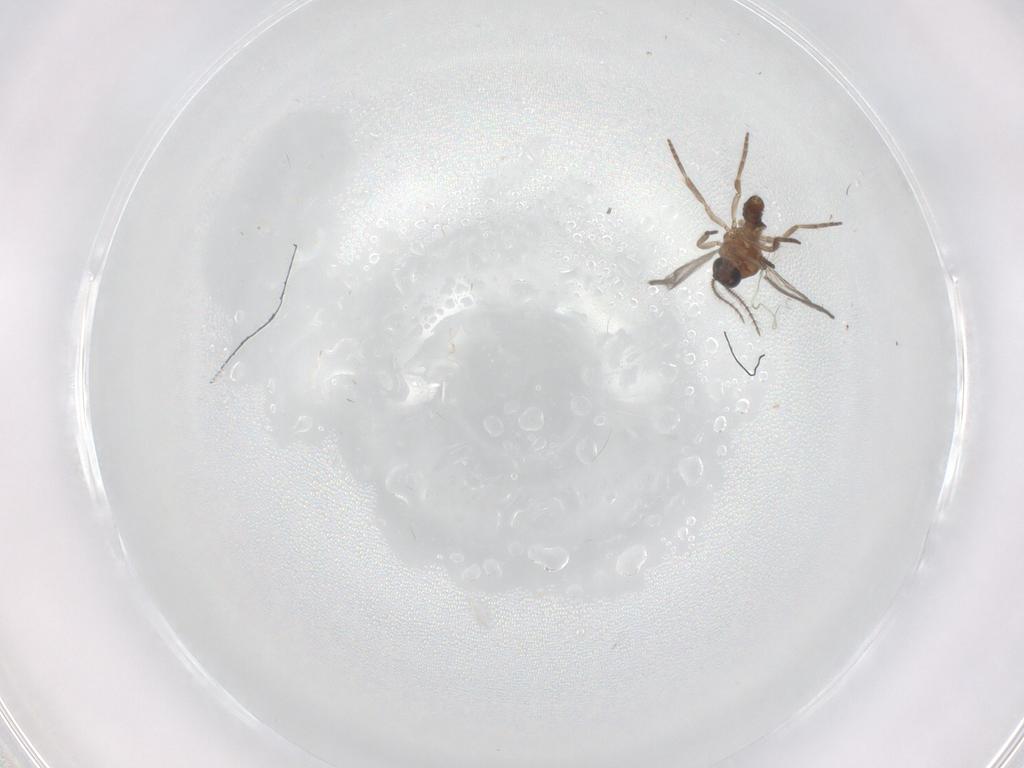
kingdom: Animalia
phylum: Arthropoda
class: Insecta
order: Diptera
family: Ceratopogonidae
